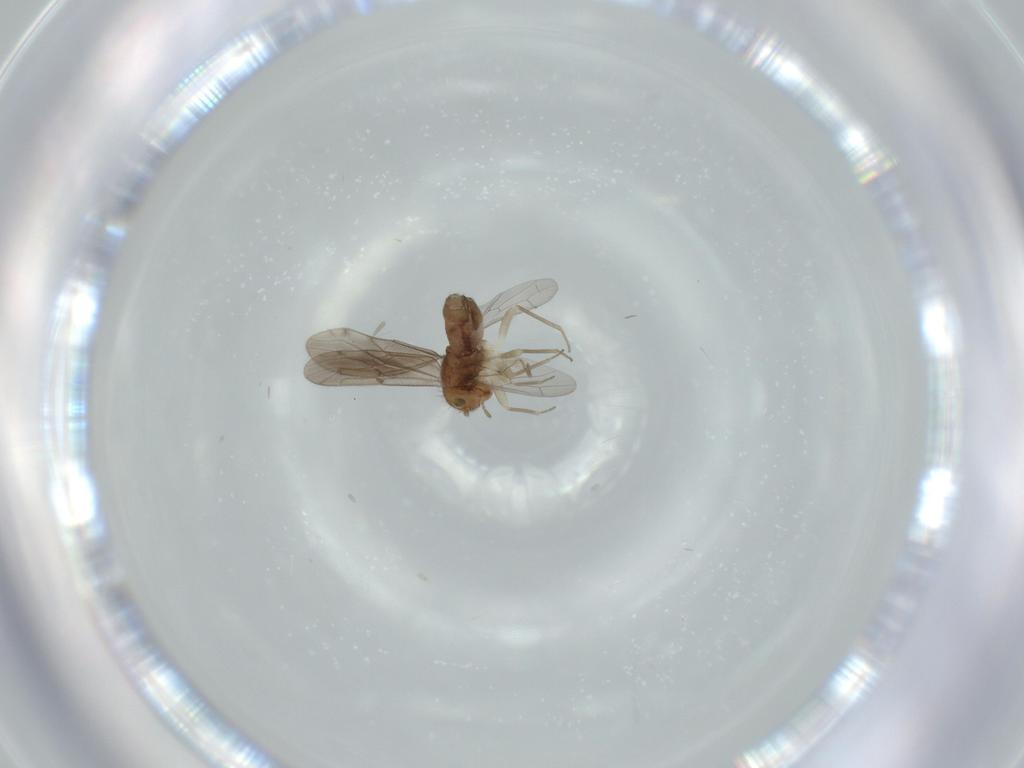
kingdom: Animalia
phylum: Arthropoda
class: Insecta
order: Psocodea
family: Ectopsocidae
